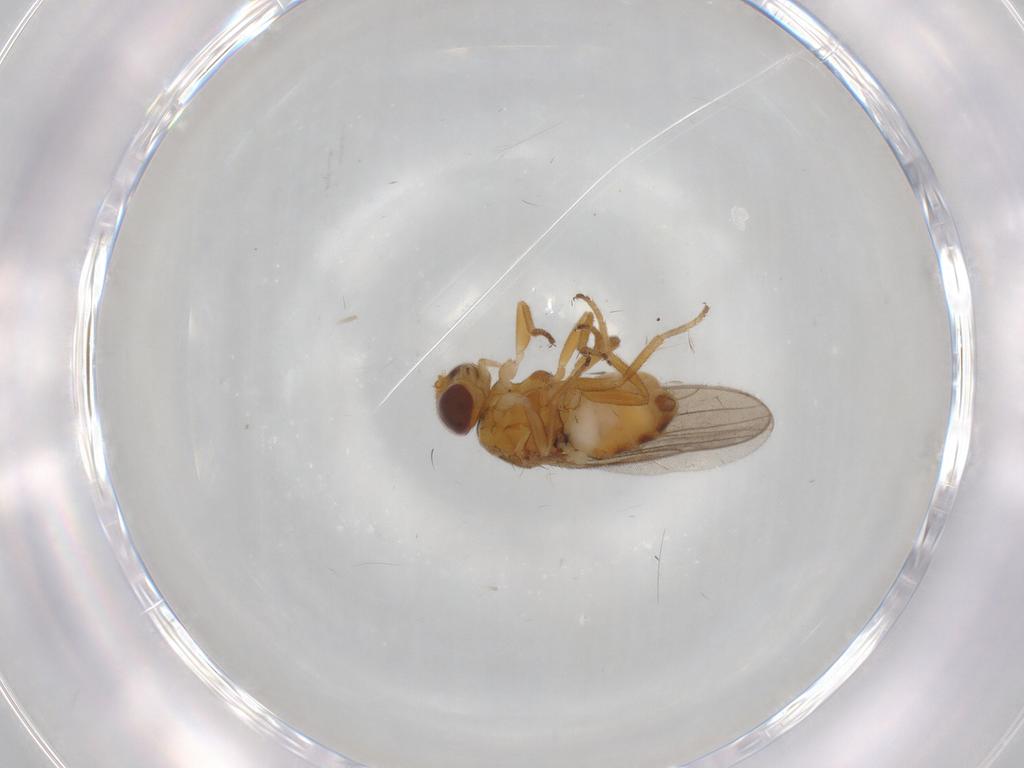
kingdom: Animalia
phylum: Arthropoda
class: Insecta
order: Diptera
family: Chloropidae
